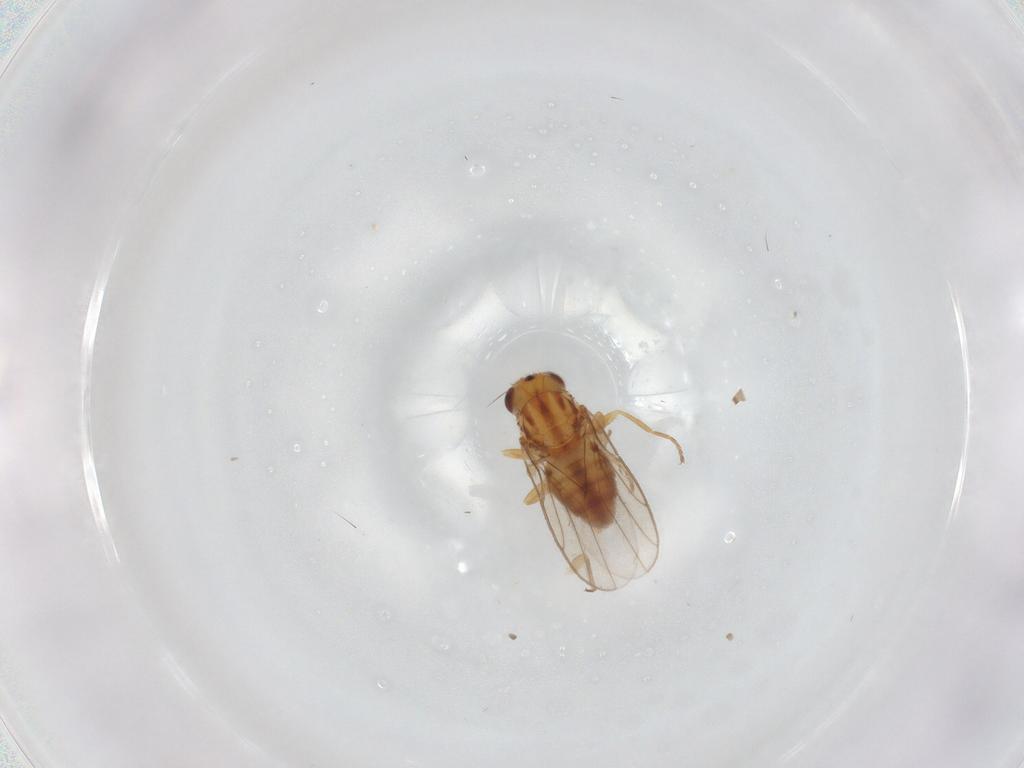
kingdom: Animalia
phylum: Arthropoda
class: Insecta
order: Diptera
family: Chloropidae
